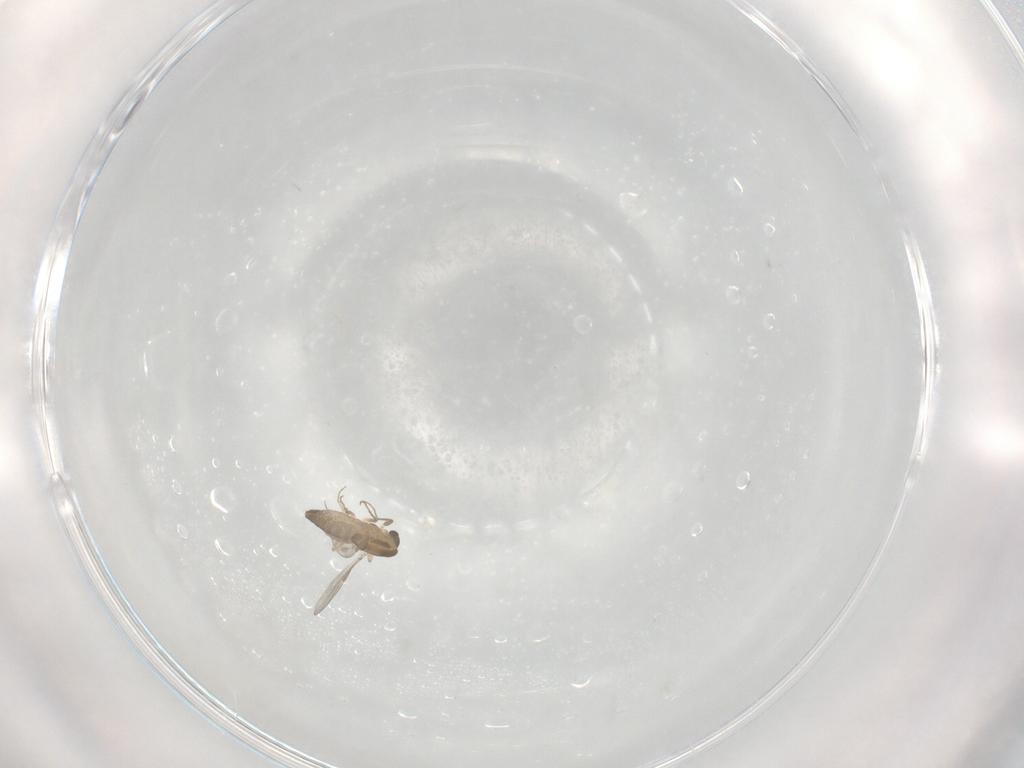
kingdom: Animalia
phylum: Arthropoda
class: Insecta
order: Diptera
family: Chironomidae
